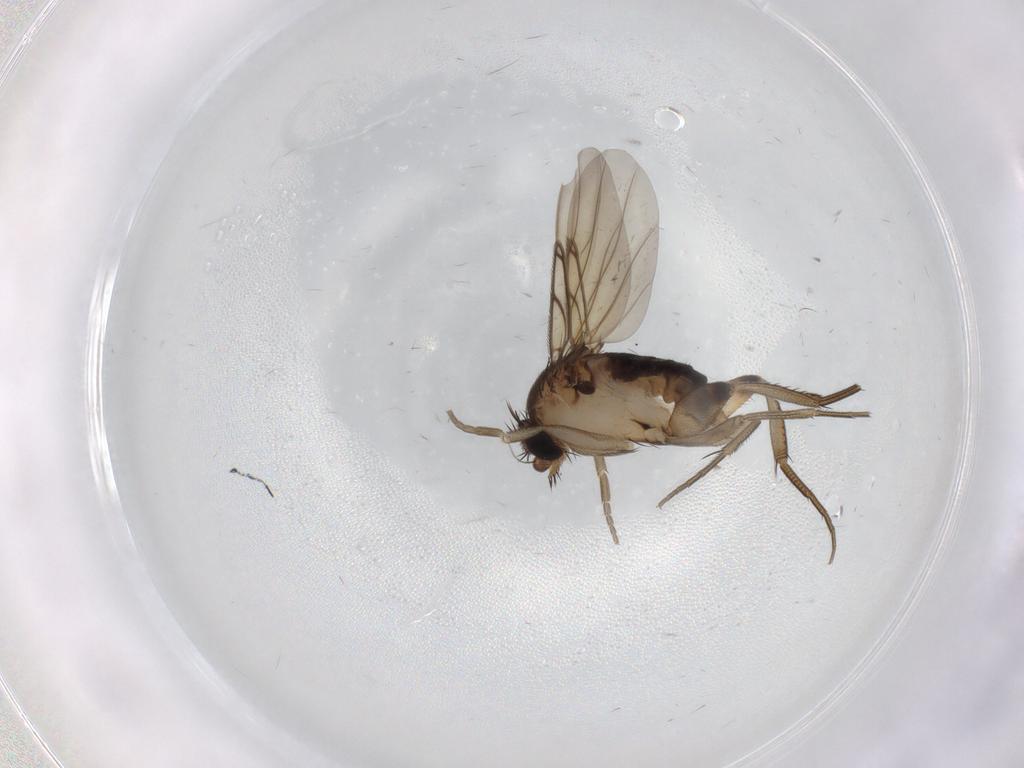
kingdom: Animalia
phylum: Arthropoda
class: Insecta
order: Diptera
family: Phoridae
